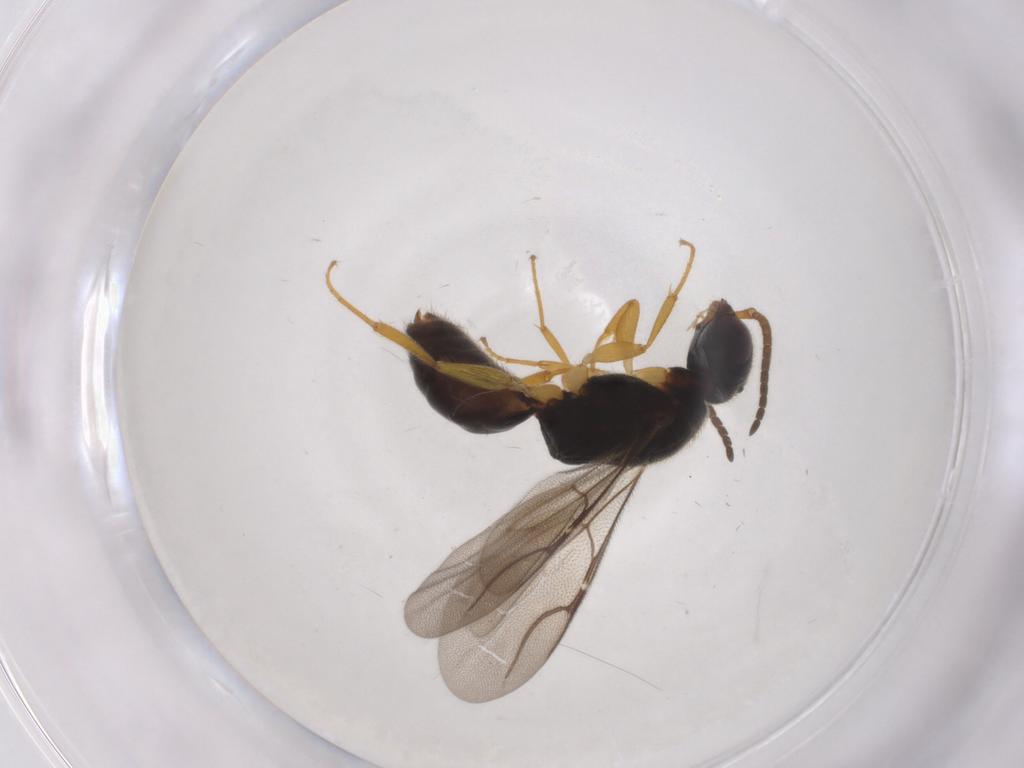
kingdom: Animalia
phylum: Arthropoda
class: Insecta
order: Hymenoptera
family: Bethylidae
